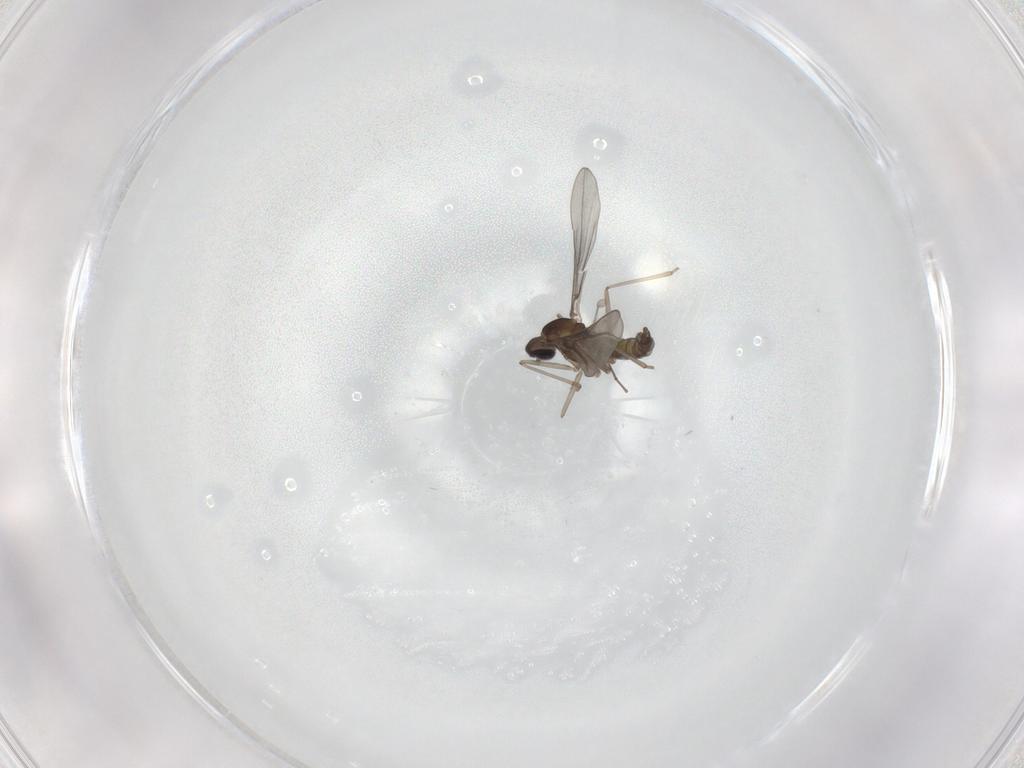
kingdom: Animalia
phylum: Arthropoda
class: Insecta
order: Diptera
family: Cecidomyiidae
